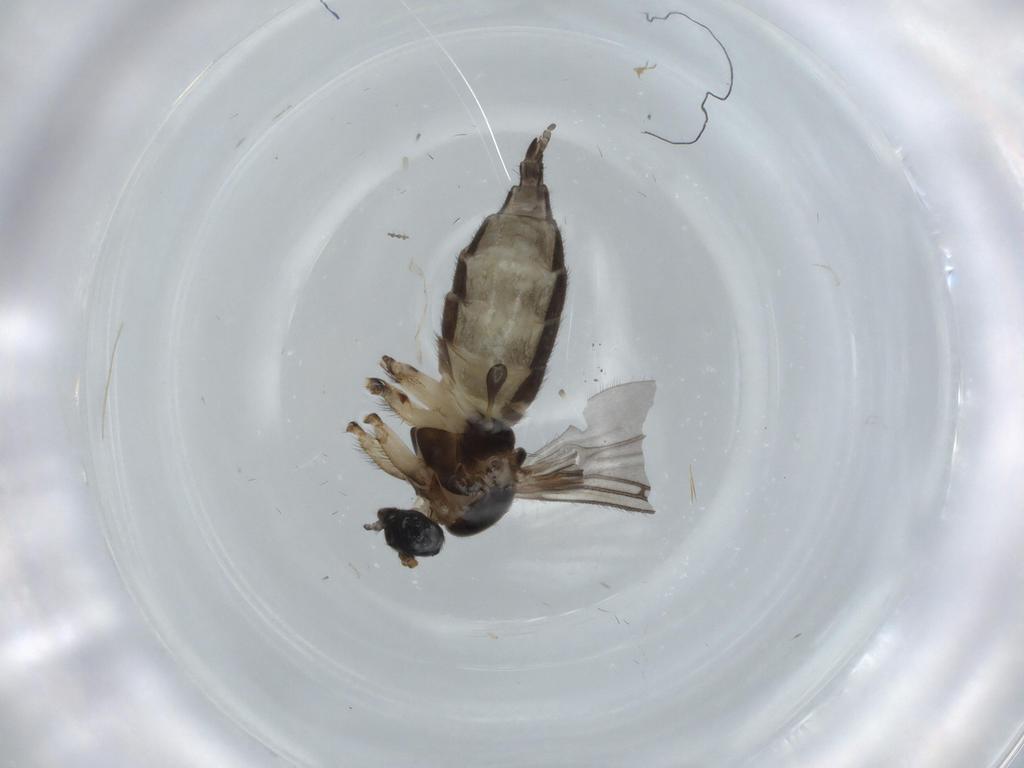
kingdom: Animalia
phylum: Arthropoda
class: Insecta
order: Diptera
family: Sciaridae
